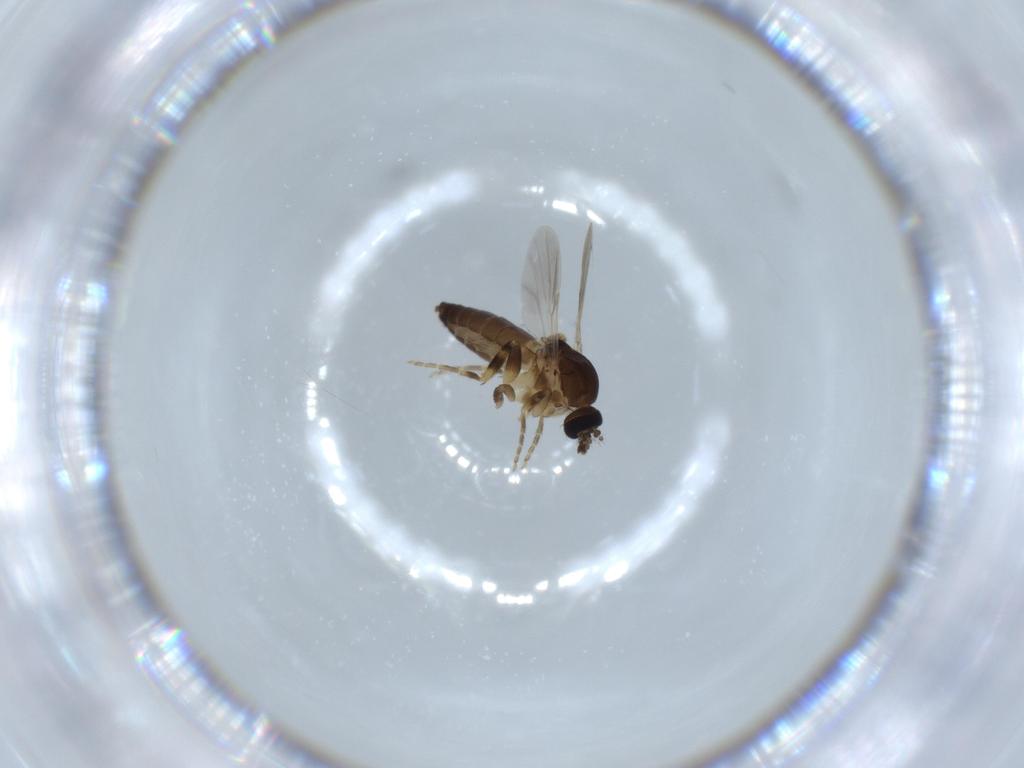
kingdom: Animalia
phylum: Arthropoda
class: Insecta
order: Diptera
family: Ceratopogonidae
